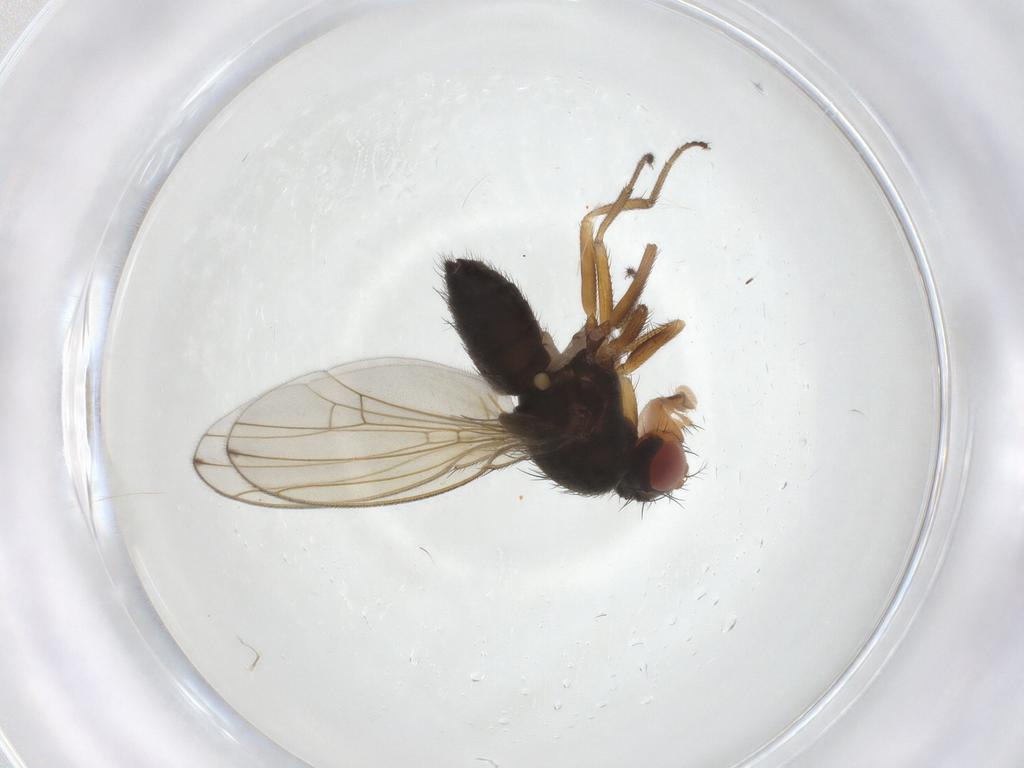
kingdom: Animalia
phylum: Arthropoda
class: Insecta
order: Diptera
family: Drosophilidae
